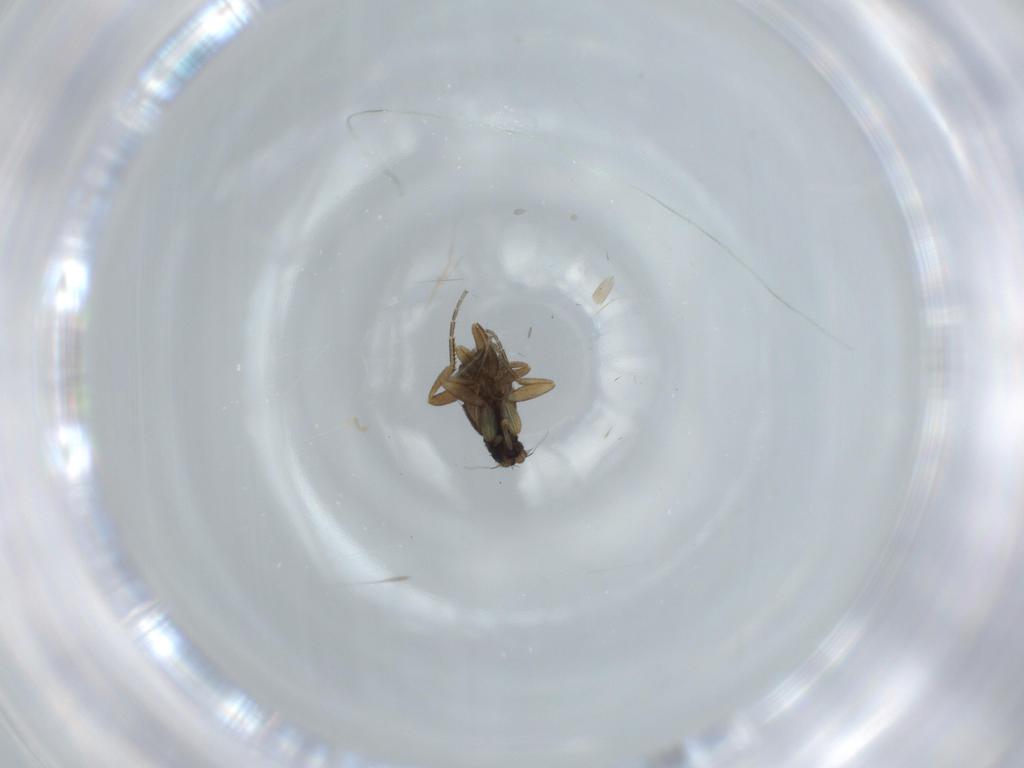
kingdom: Animalia
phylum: Arthropoda
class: Insecta
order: Diptera
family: Phoridae
